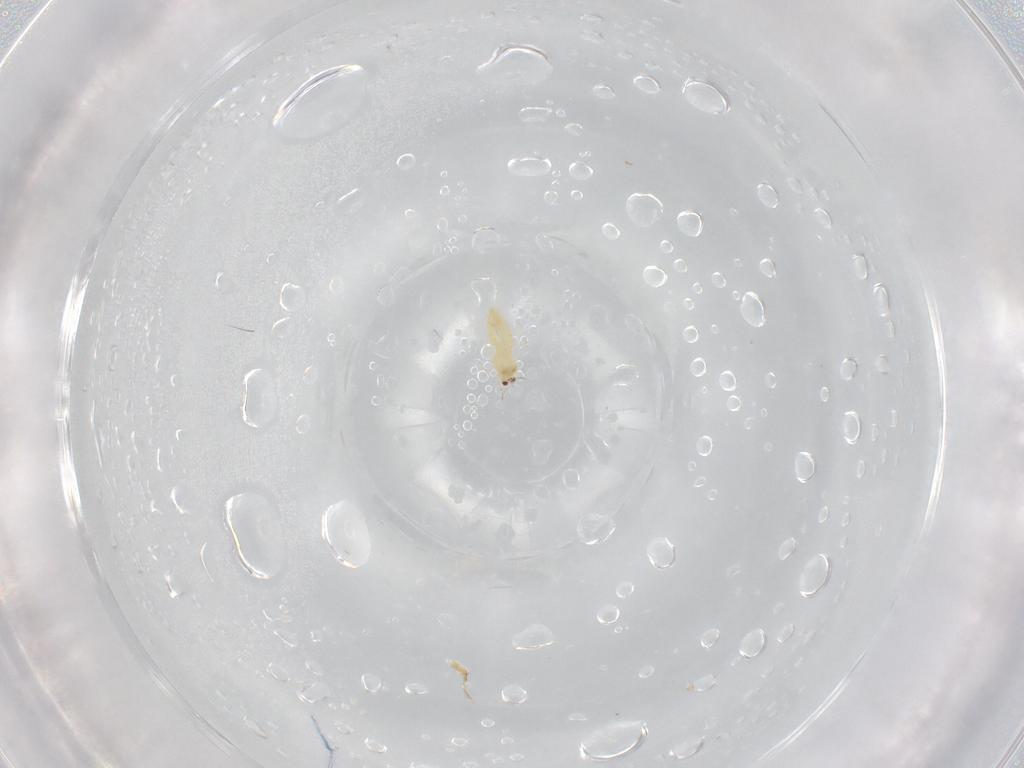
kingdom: Animalia
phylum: Arthropoda
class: Insecta
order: Thysanoptera
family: Thripidae
